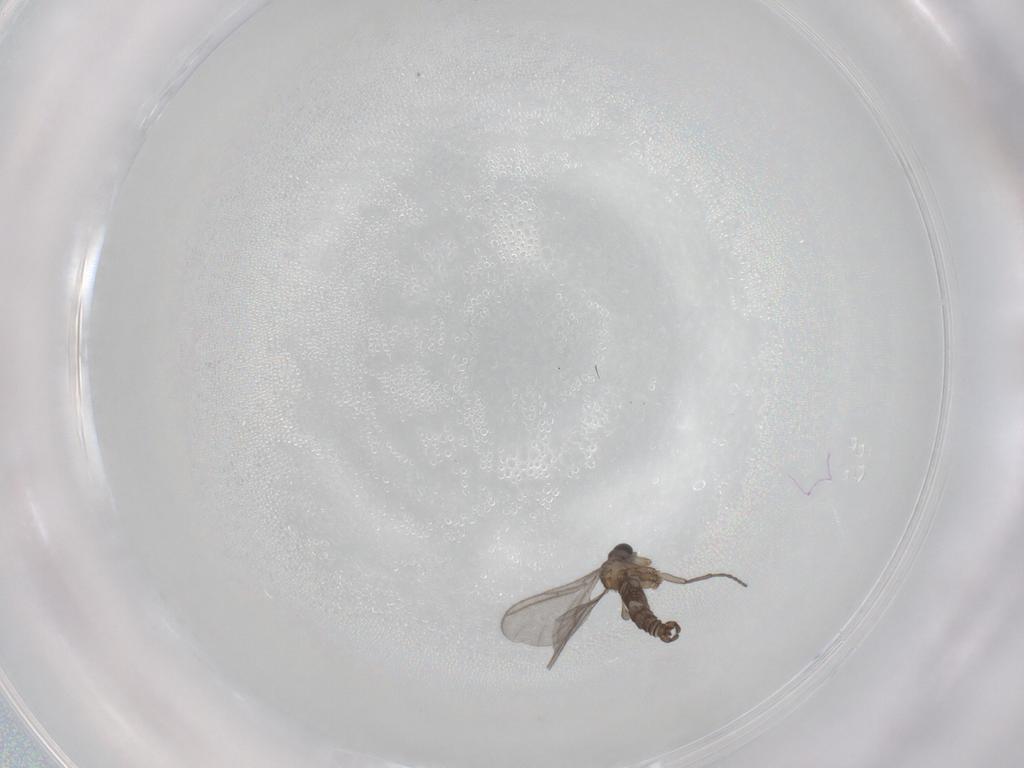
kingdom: Animalia
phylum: Arthropoda
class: Insecta
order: Diptera
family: Sciaridae
